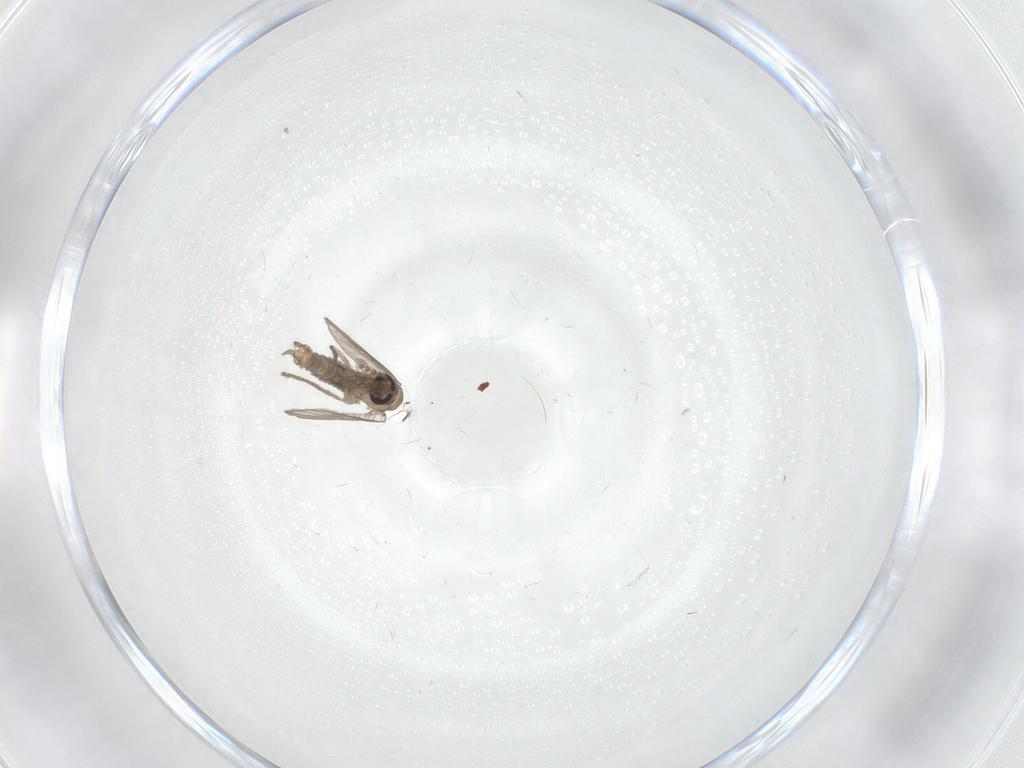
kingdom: Animalia
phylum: Arthropoda
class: Insecta
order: Diptera
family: Psychodidae
